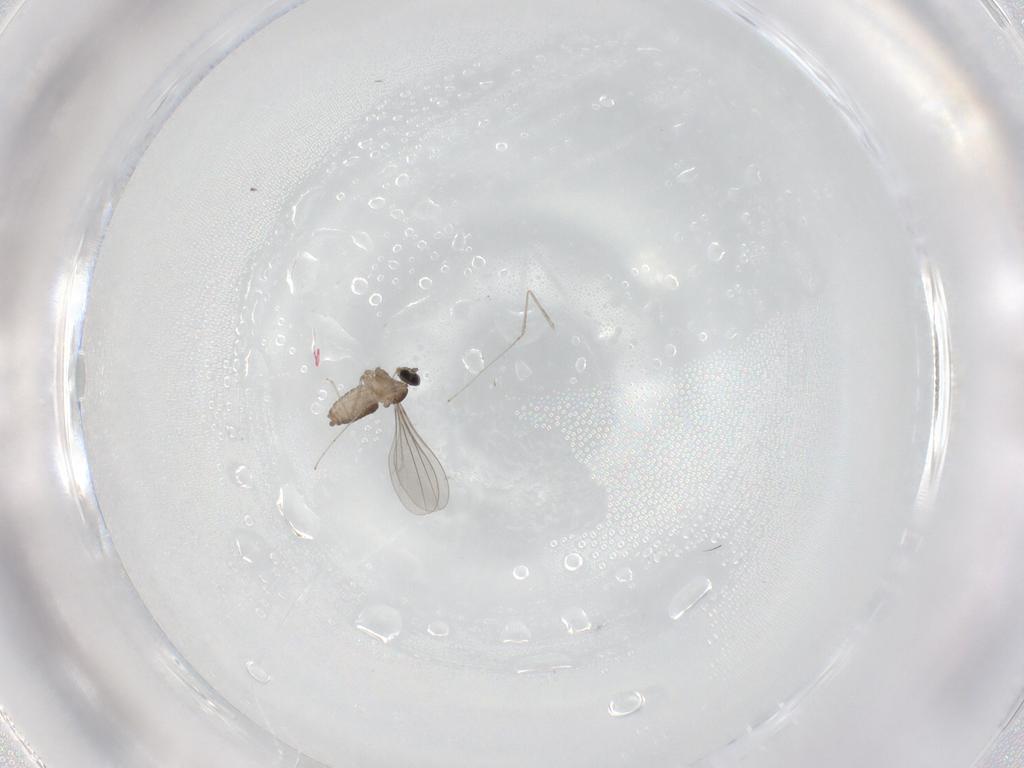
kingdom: Animalia
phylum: Arthropoda
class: Insecta
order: Diptera
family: Cecidomyiidae
